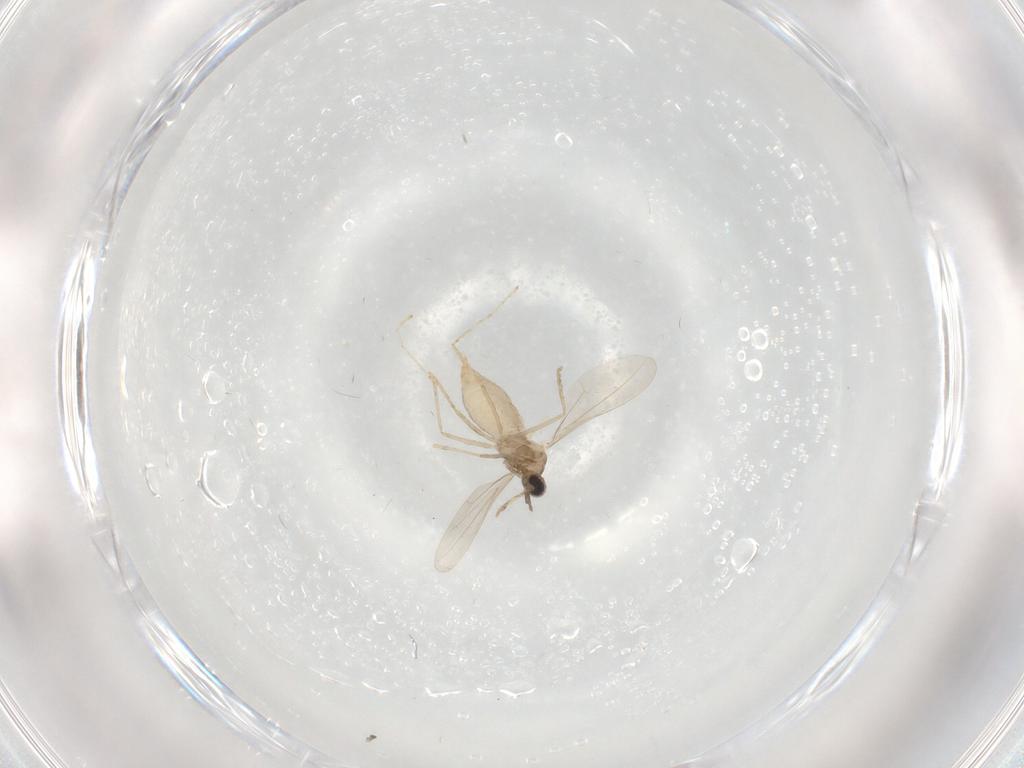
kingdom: Animalia
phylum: Arthropoda
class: Insecta
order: Diptera
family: Cecidomyiidae
